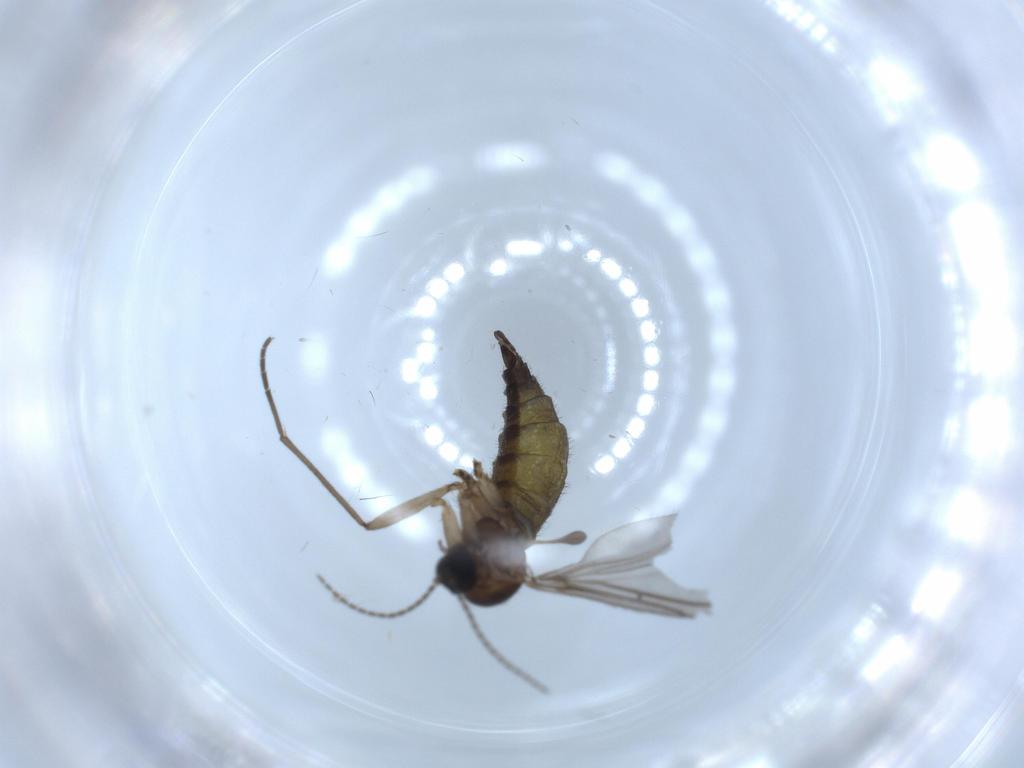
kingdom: Animalia
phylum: Arthropoda
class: Insecta
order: Diptera
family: Sciaridae
